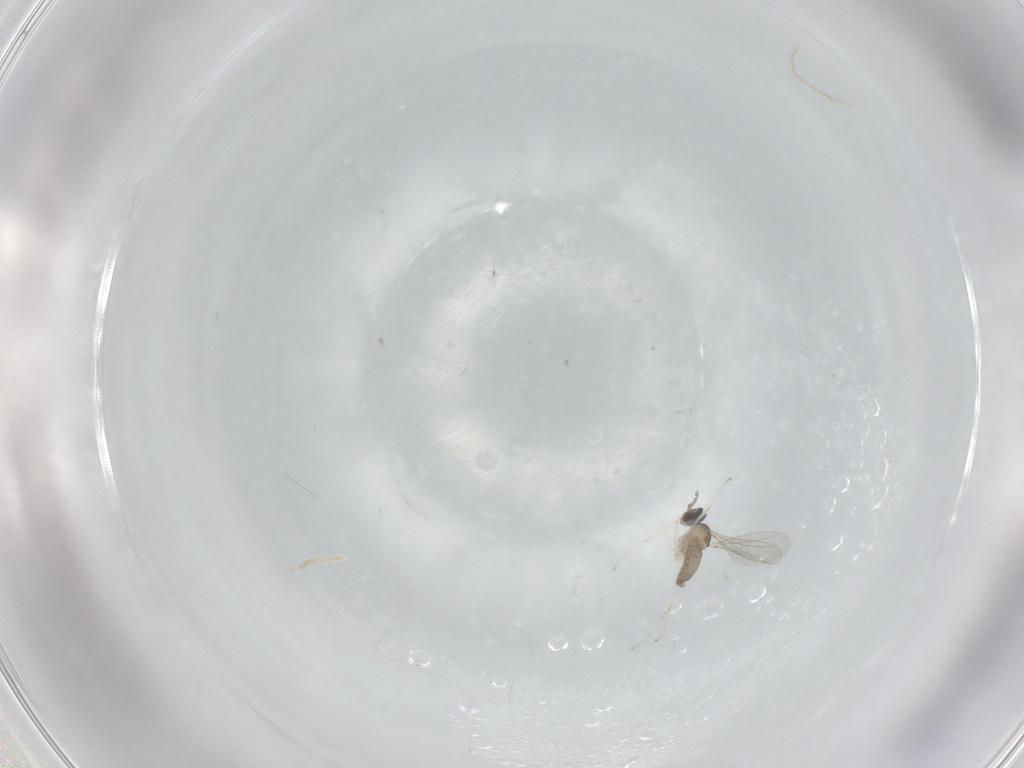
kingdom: Animalia
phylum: Arthropoda
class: Insecta
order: Diptera
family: Cecidomyiidae
